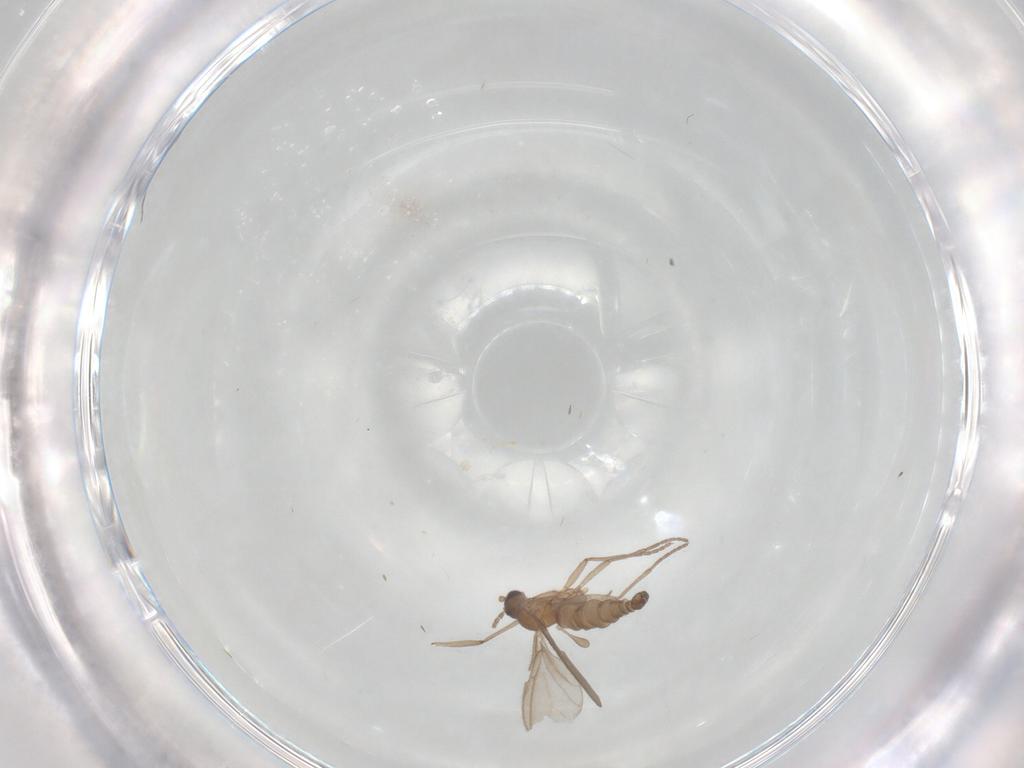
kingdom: Animalia
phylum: Arthropoda
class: Insecta
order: Diptera
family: Sciaridae
